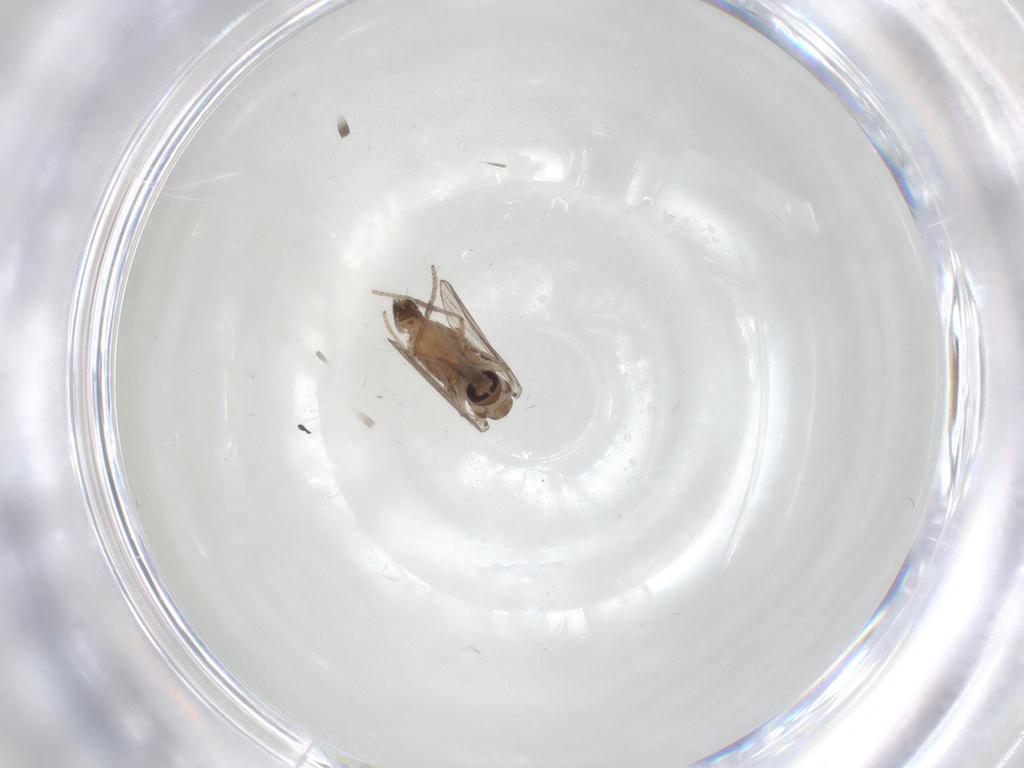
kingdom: Animalia
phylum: Arthropoda
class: Insecta
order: Diptera
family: Psychodidae
